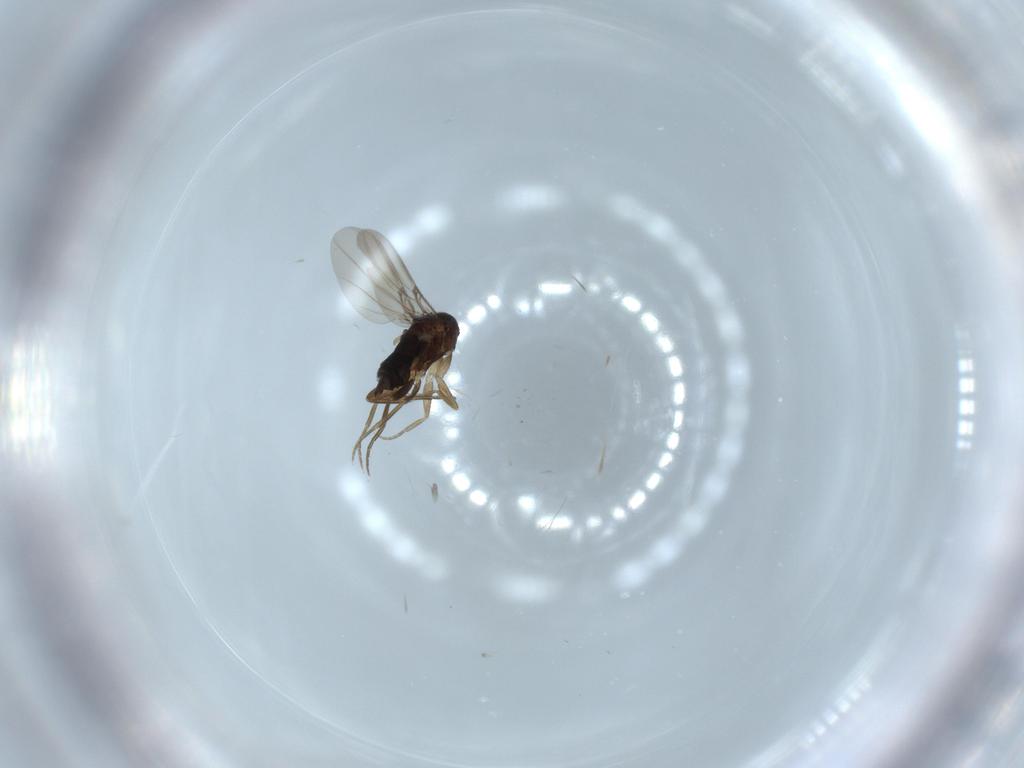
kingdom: Animalia
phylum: Arthropoda
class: Insecta
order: Diptera
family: Phoridae
